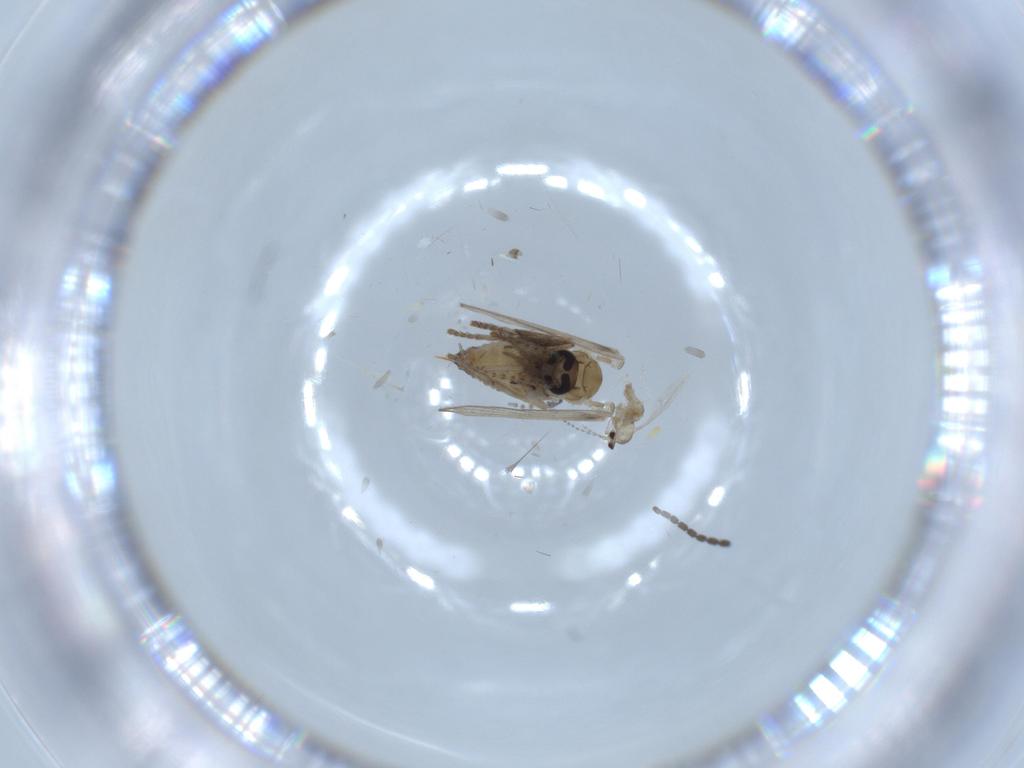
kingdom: Animalia
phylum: Arthropoda
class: Insecta
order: Diptera
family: Psychodidae
